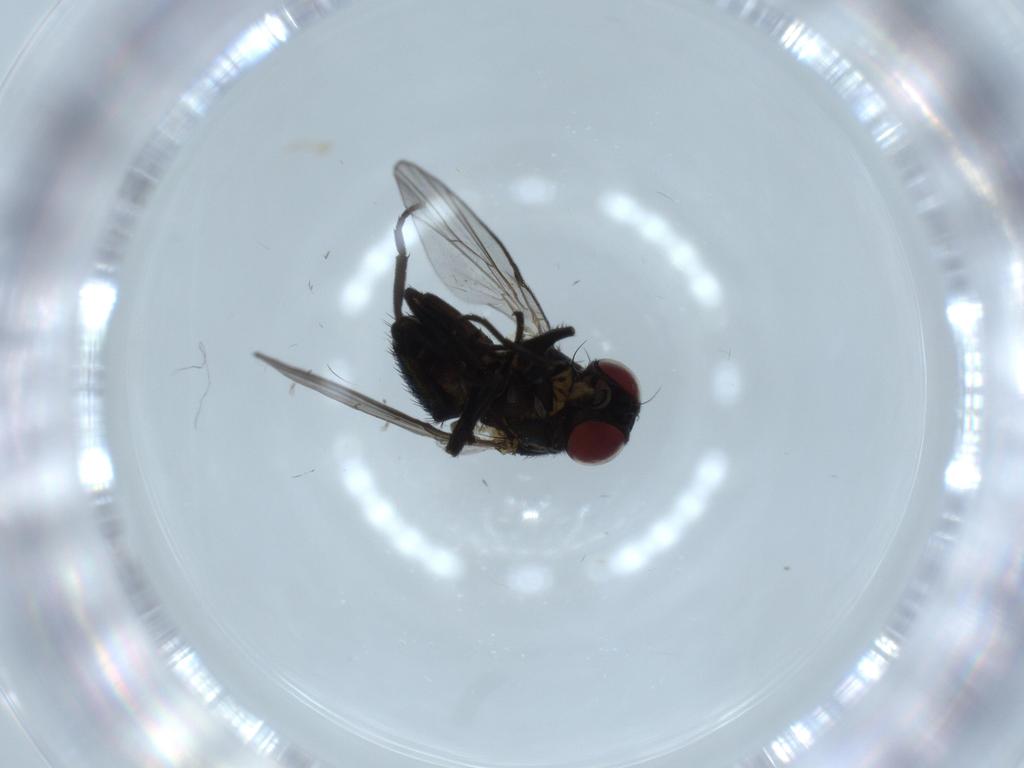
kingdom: Animalia
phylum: Arthropoda
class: Insecta
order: Diptera
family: Agromyzidae
